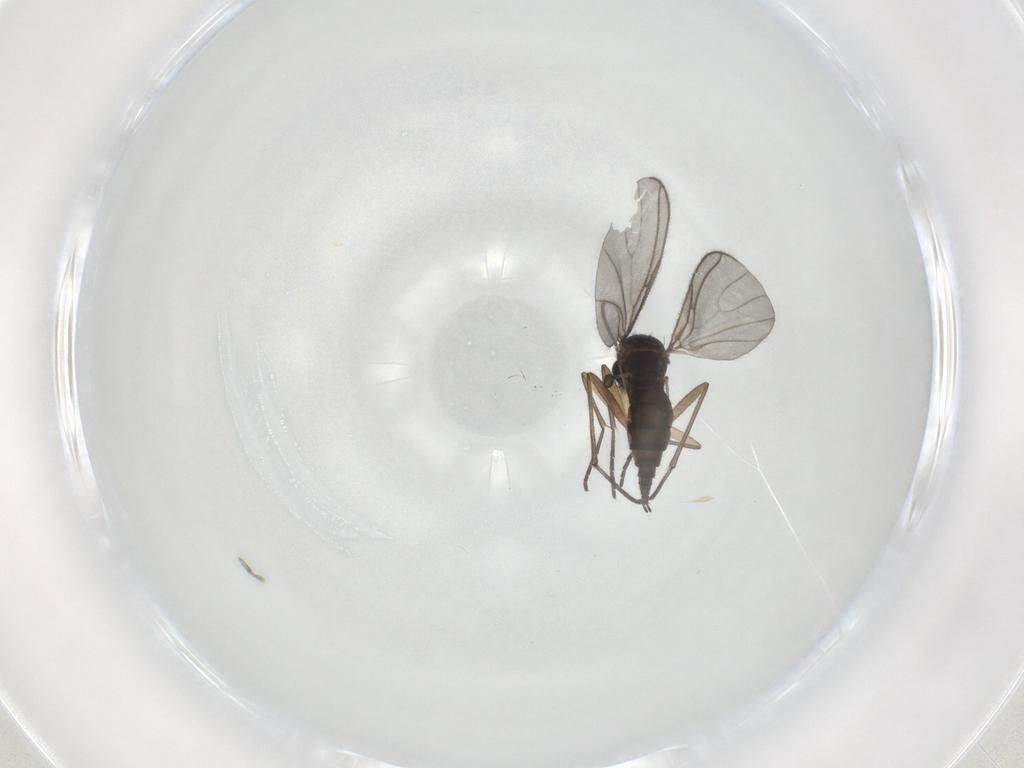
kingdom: Animalia
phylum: Arthropoda
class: Insecta
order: Diptera
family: Sciaridae
